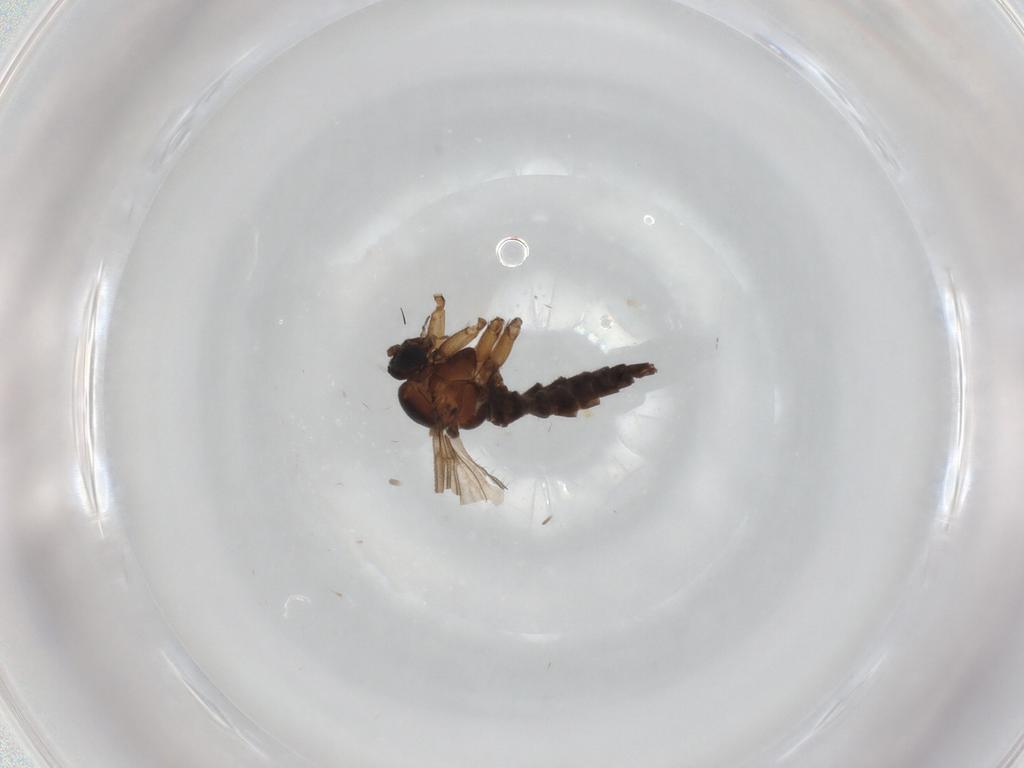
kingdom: Animalia
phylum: Arthropoda
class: Insecta
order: Diptera
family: Sciaridae
